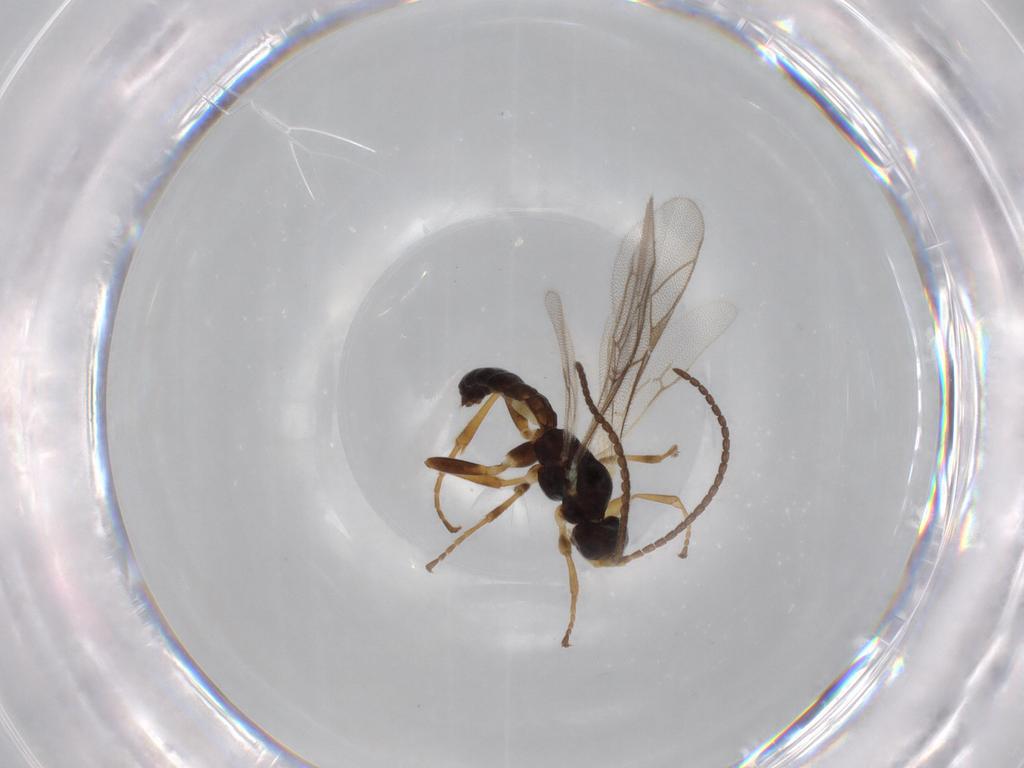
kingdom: Animalia
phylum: Arthropoda
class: Insecta
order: Hymenoptera
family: Ichneumonidae
